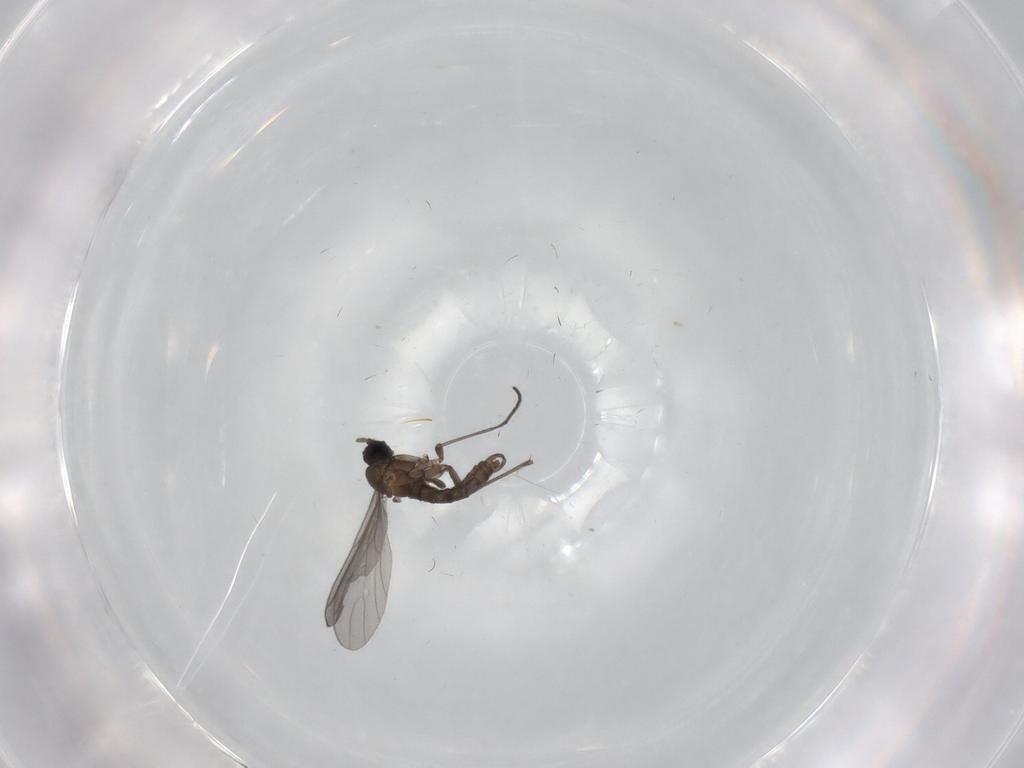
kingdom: Animalia
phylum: Arthropoda
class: Insecta
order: Diptera
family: Sciaridae
